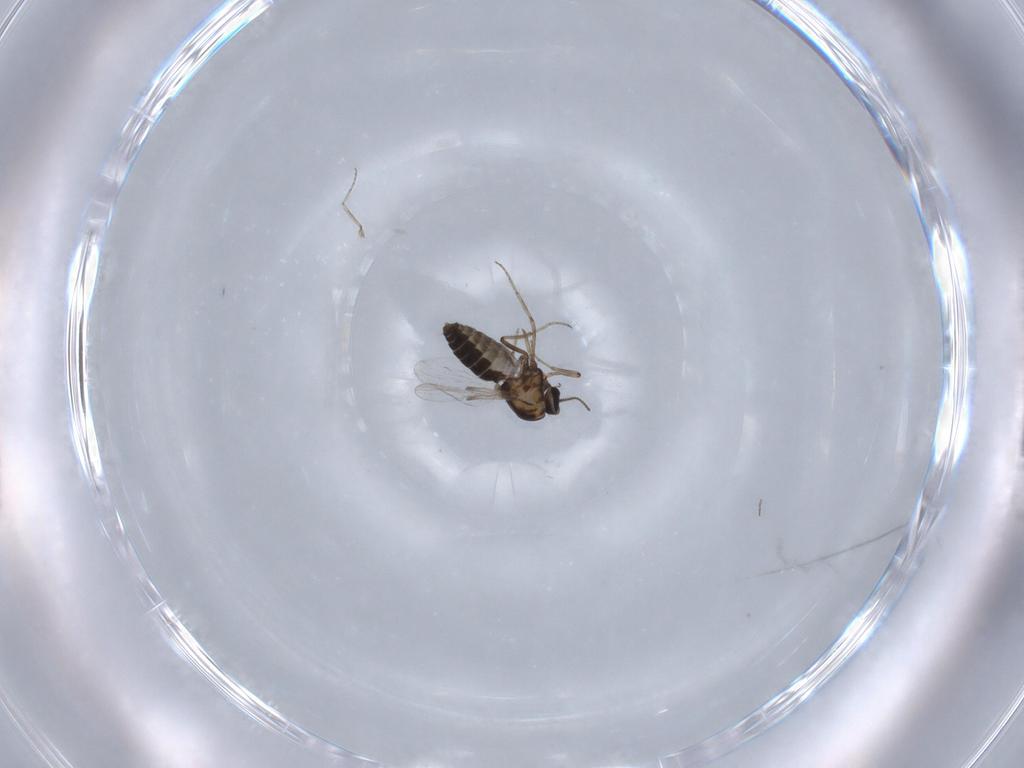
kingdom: Animalia
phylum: Arthropoda
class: Insecta
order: Diptera
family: Ceratopogonidae
